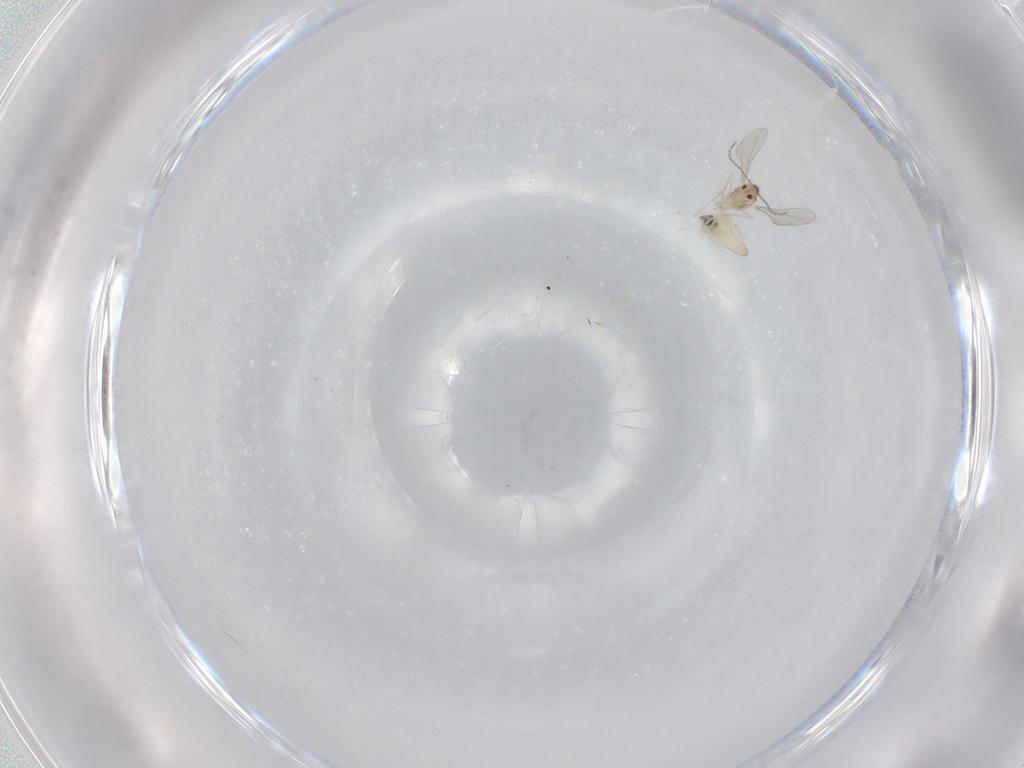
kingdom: Animalia
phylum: Arthropoda
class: Insecta
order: Diptera
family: Cecidomyiidae
